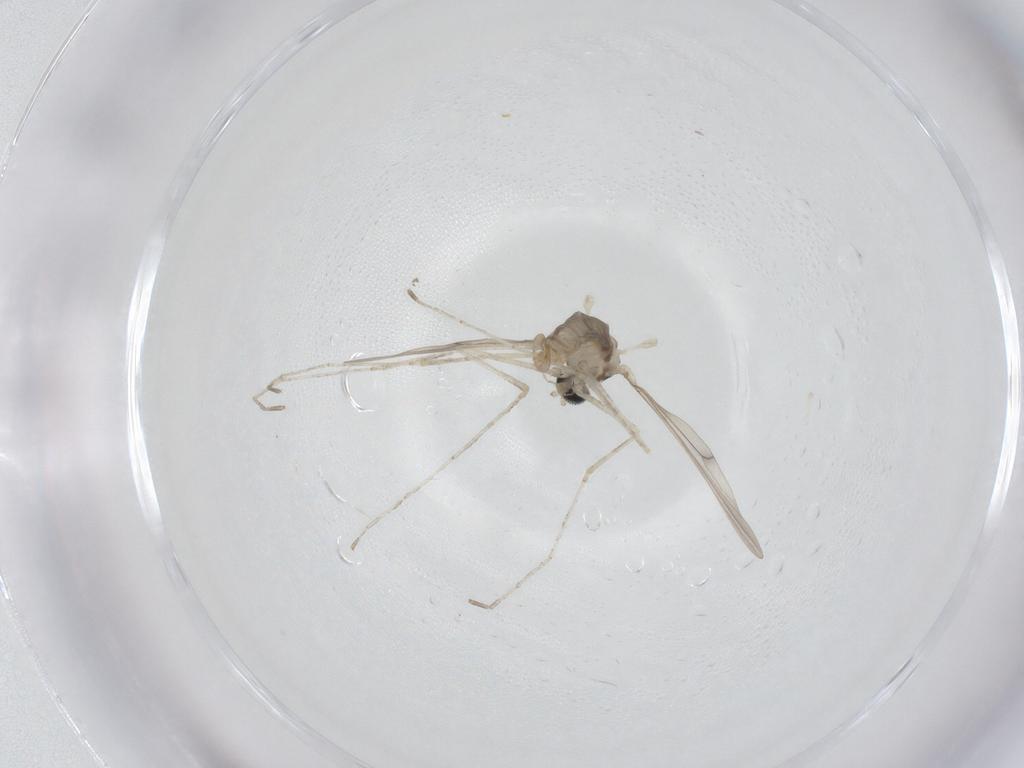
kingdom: Animalia
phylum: Arthropoda
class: Insecta
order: Diptera
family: Cecidomyiidae
